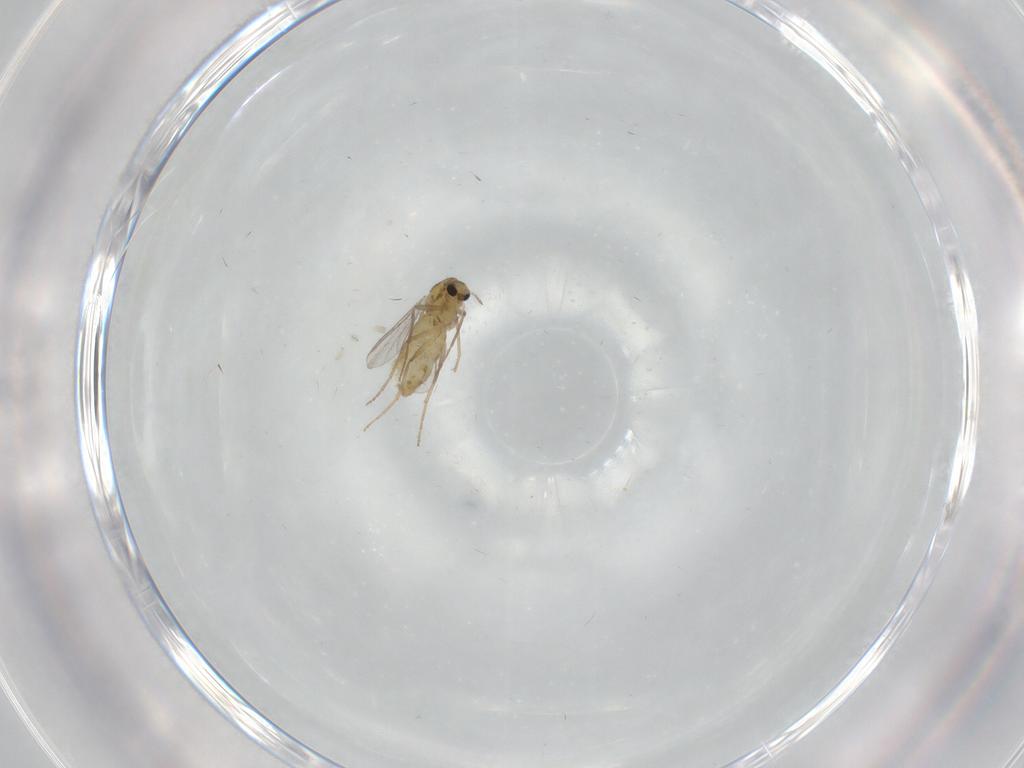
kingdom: Animalia
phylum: Arthropoda
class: Insecta
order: Diptera
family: Chironomidae
